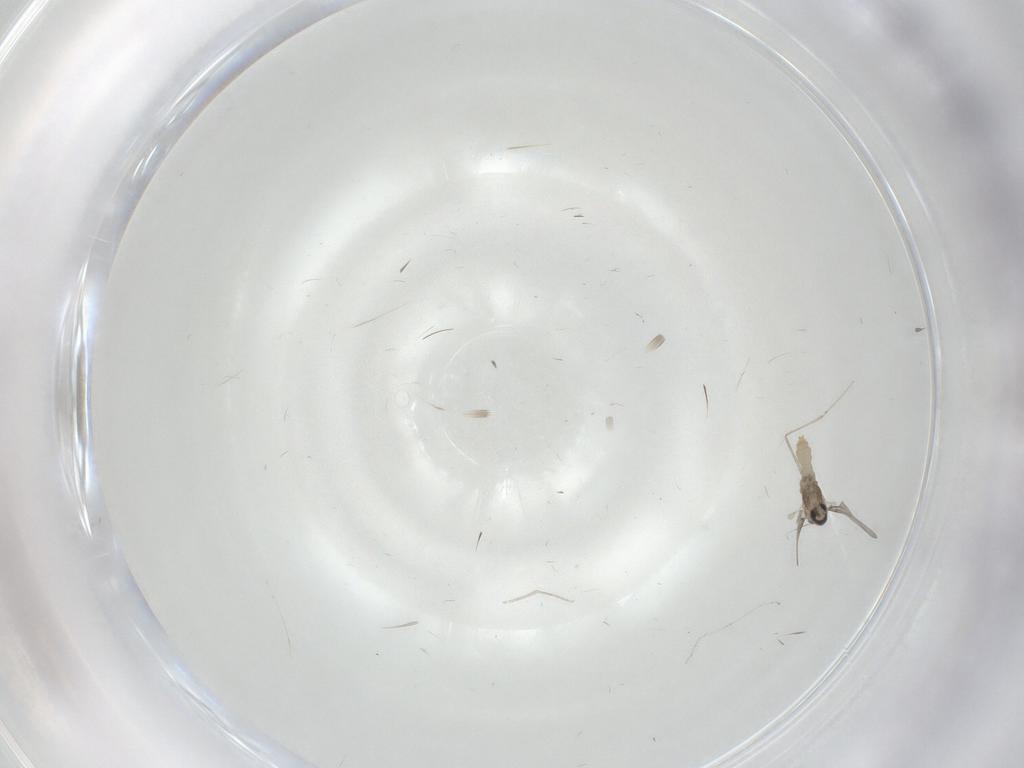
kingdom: Animalia
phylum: Arthropoda
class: Insecta
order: Diptera
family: Cecidomyiidae
